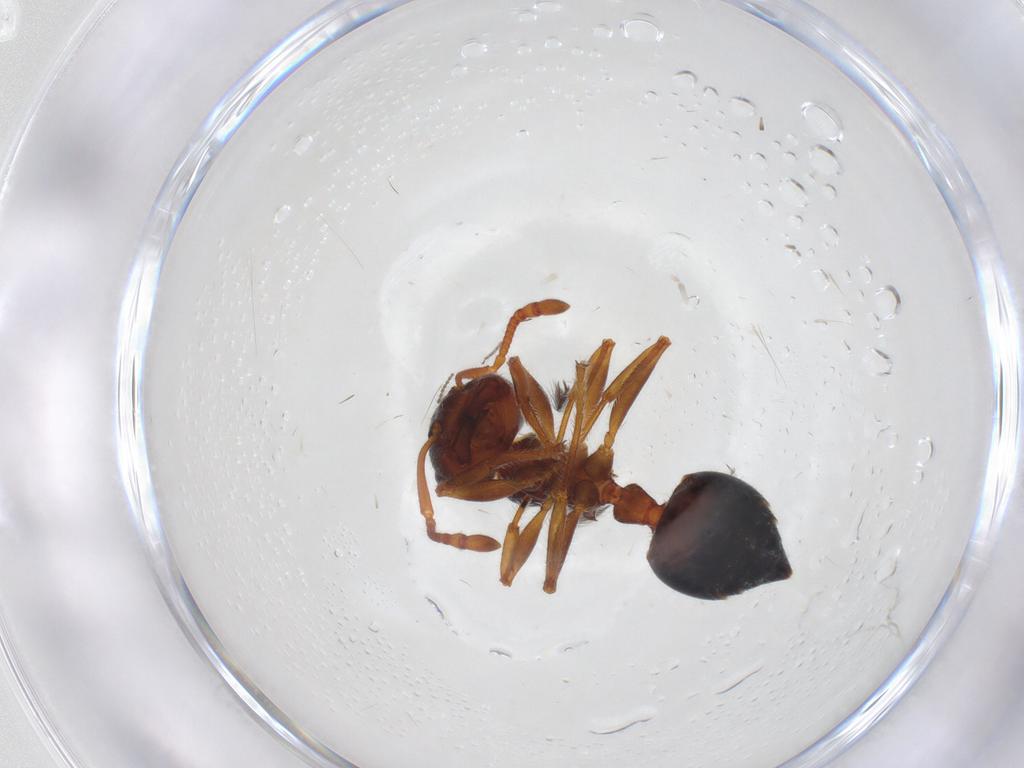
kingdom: Animalia
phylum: Arthropoda
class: Insecta
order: Hymenoptera
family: Formicidae
